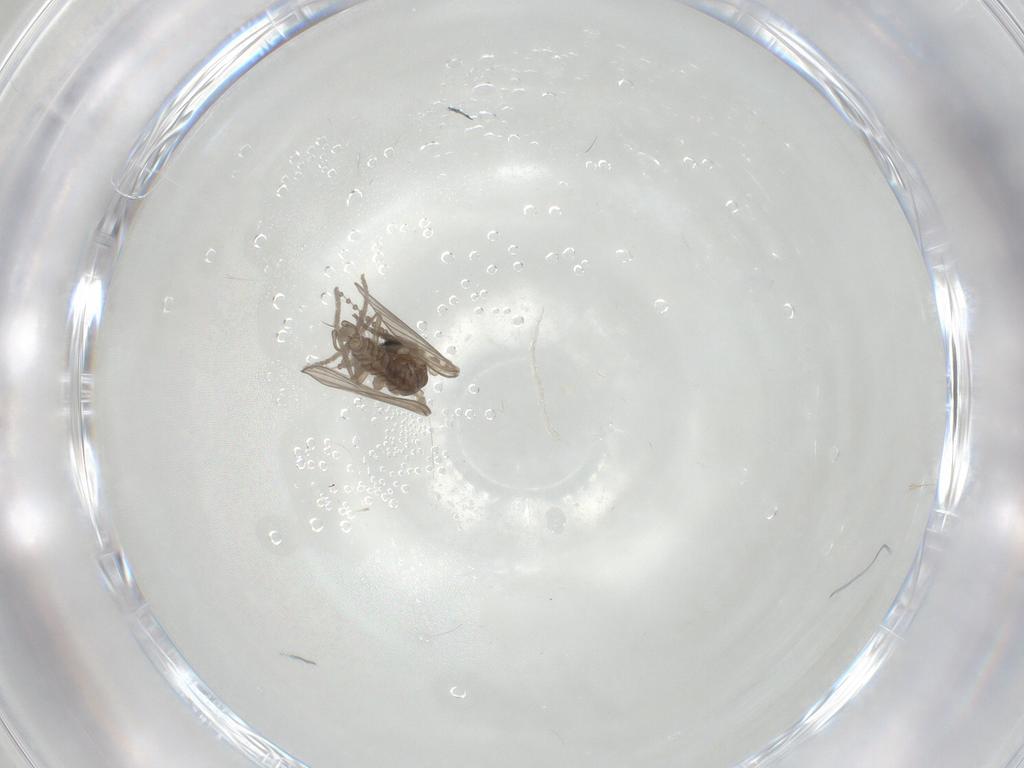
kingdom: Animalia
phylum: Arthropoda
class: Insecta
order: Diptera
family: Psychodidae
